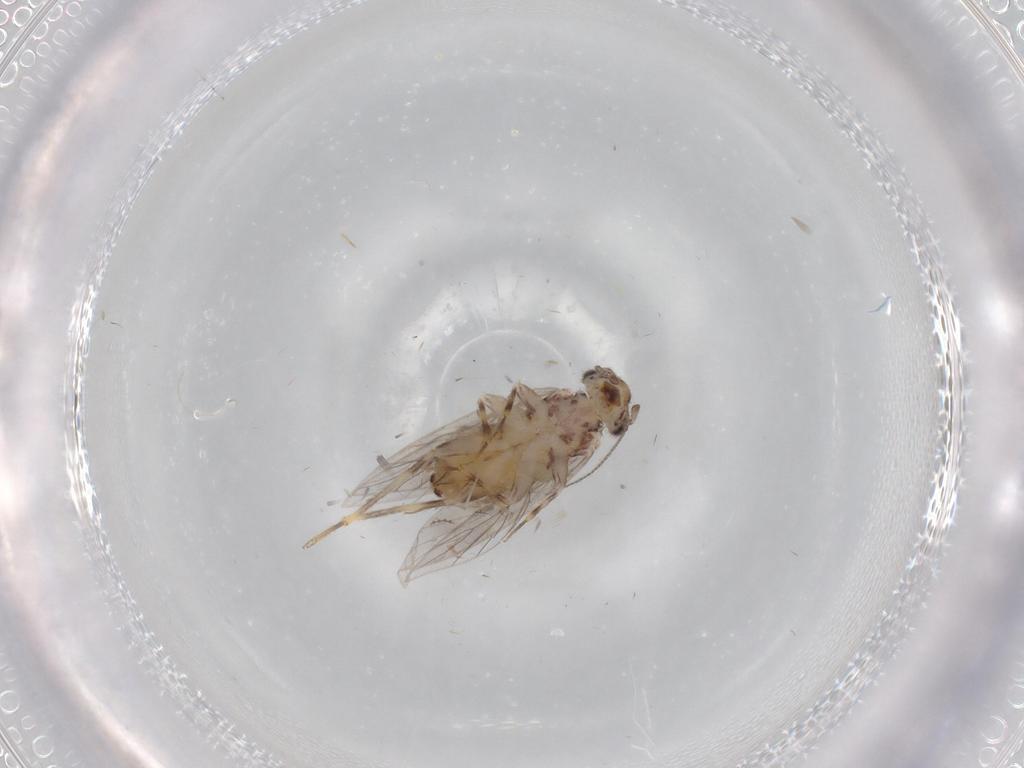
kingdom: Animalia
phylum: Arthropoda
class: Insecta
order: Psocodea
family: Lepidopsocidae
